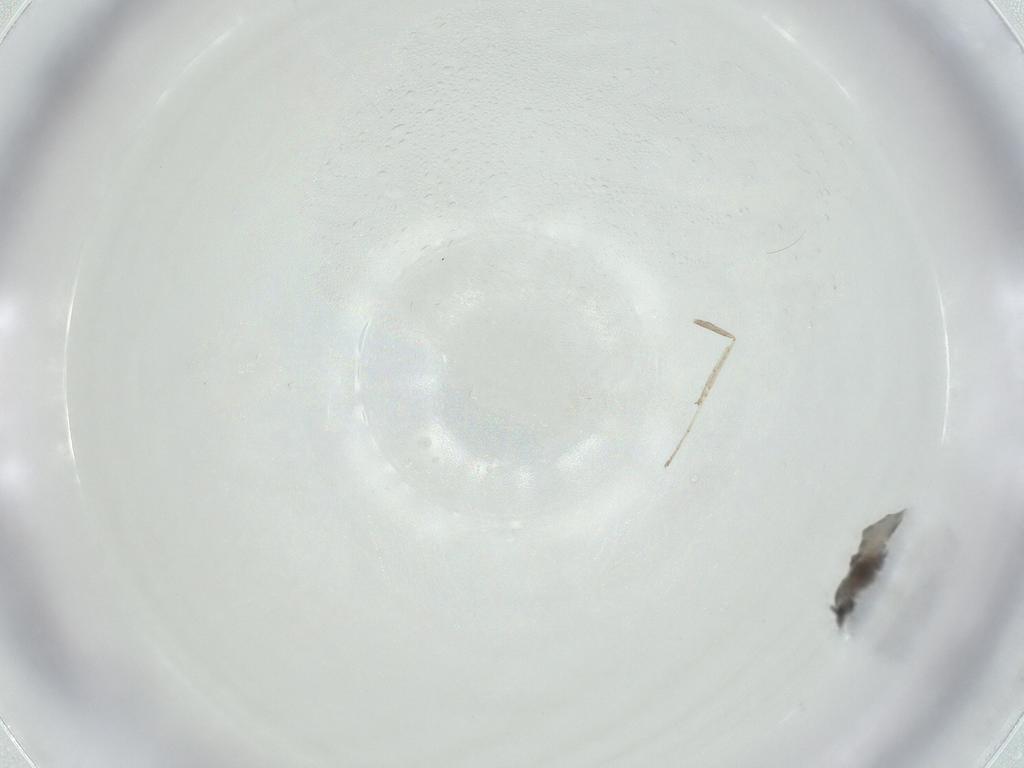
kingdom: Animalia
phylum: Arthropoda
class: Insecta
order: Diptera
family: Cecidomyiidae
